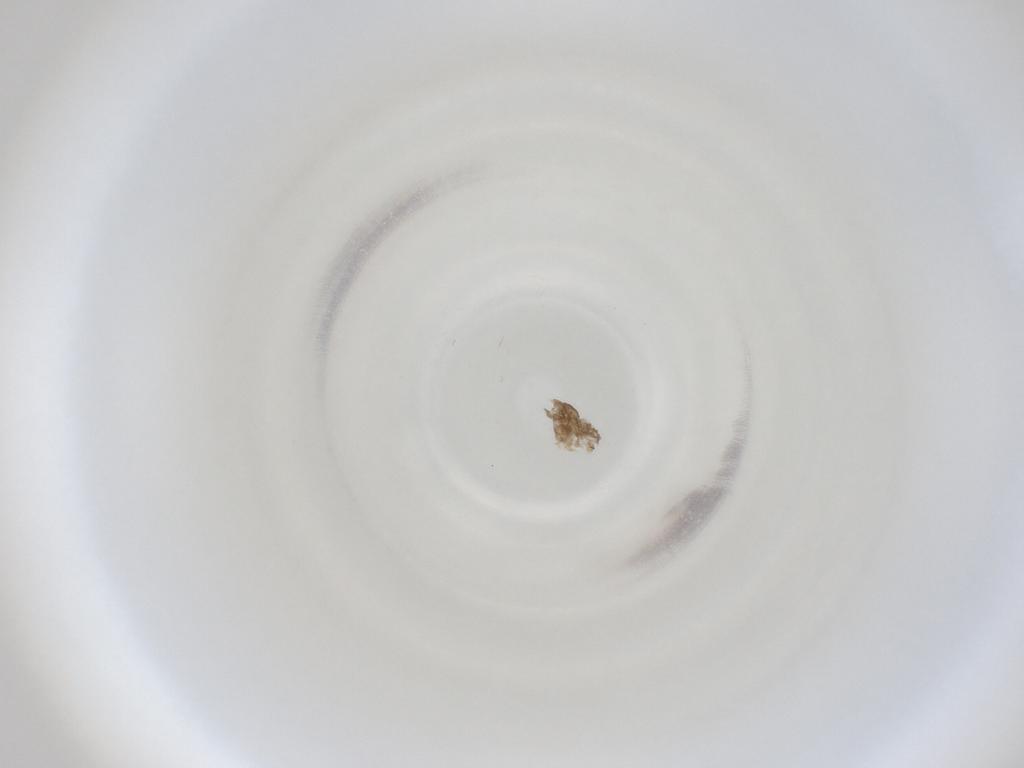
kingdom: Animalia
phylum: Arthropoda
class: Insecta
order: Diptera
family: Cecidomyiidae
